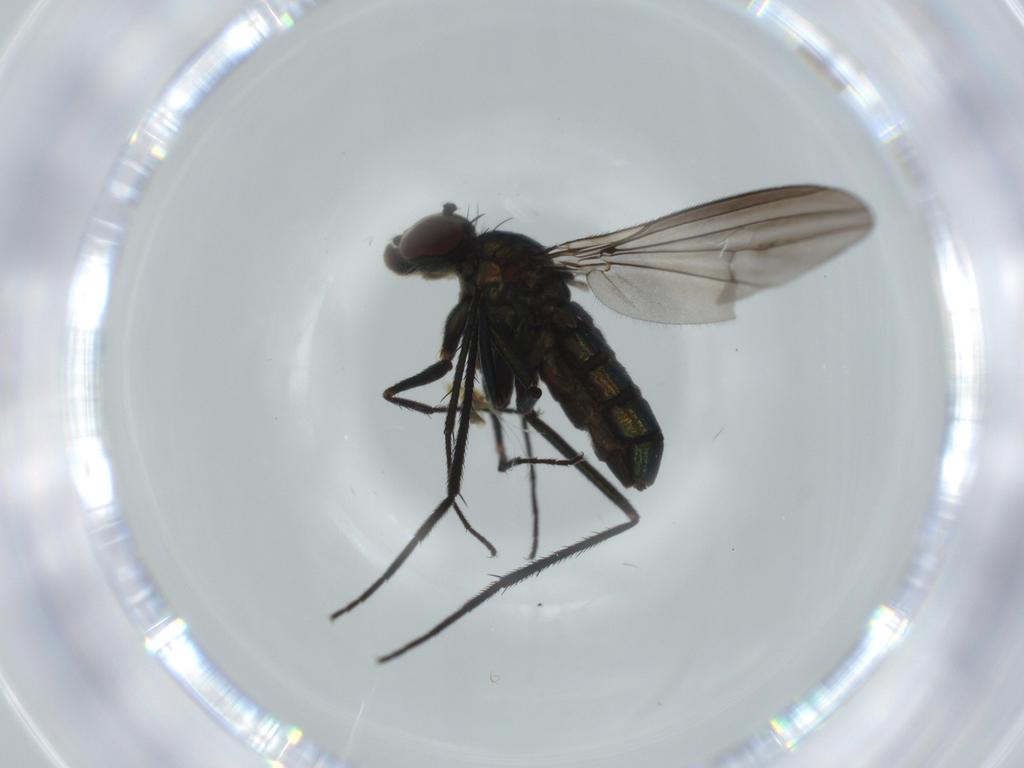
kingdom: Animalia
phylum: Arthropoda
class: Insecta
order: Diptera
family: Chironomidae
